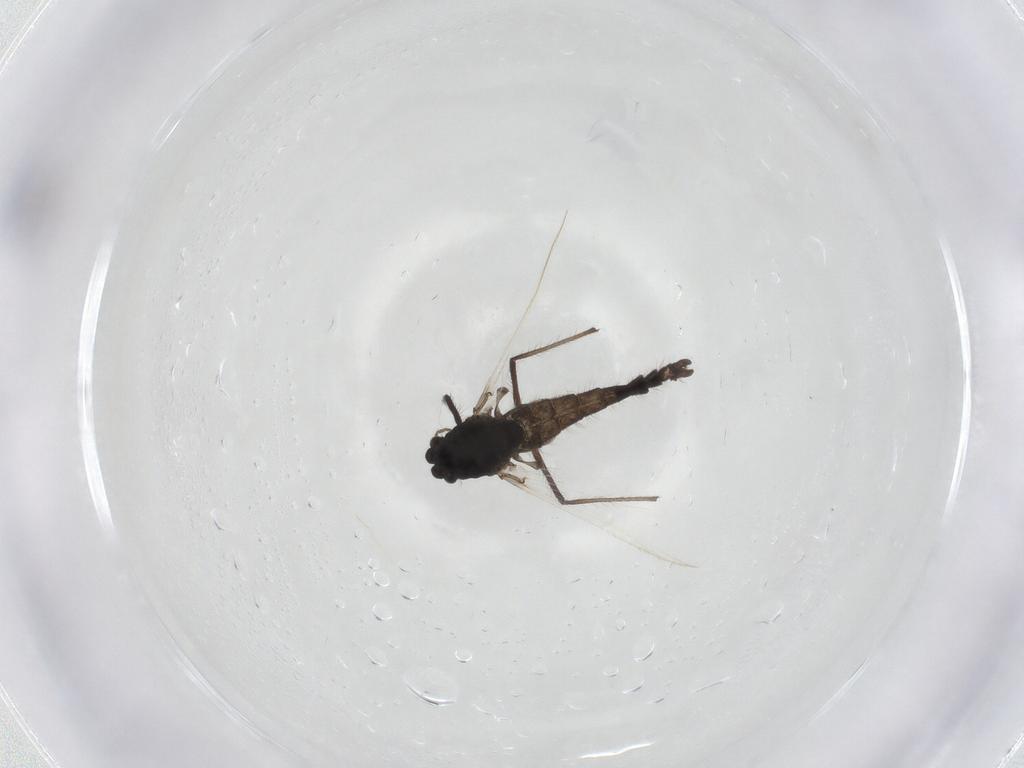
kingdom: Animalia
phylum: Arthropoda
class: Insecta
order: Diptera
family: Chironomidae
